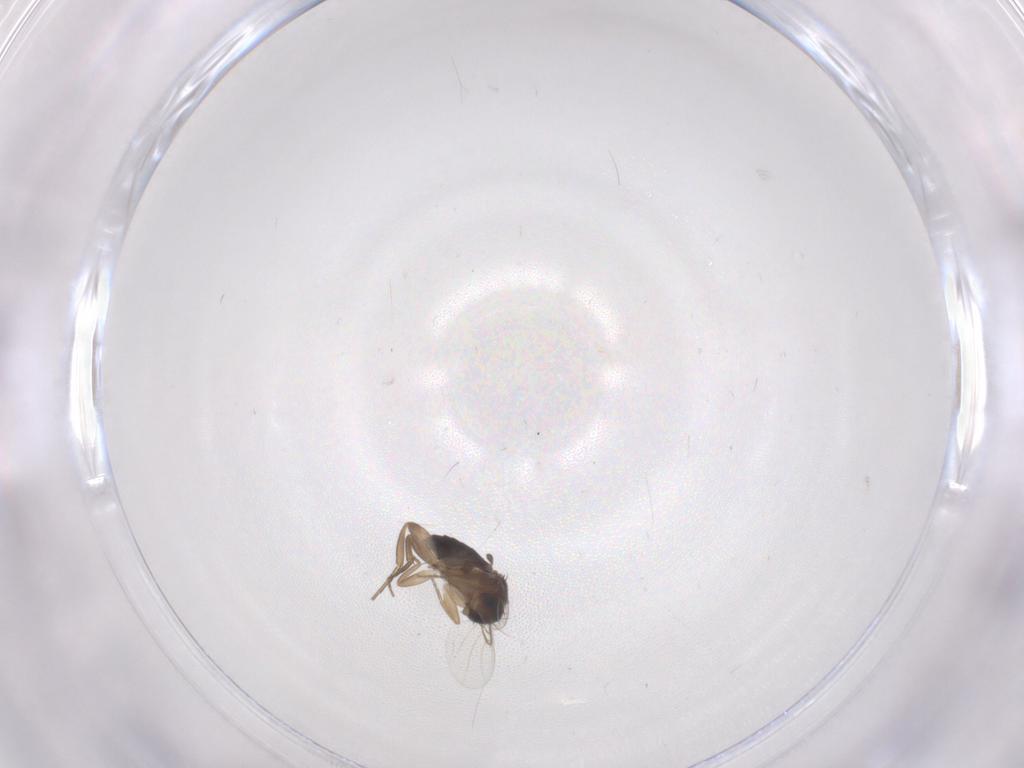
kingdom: Animalia
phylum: Arthropoda
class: Insecta
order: Diptera
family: Phoridae
